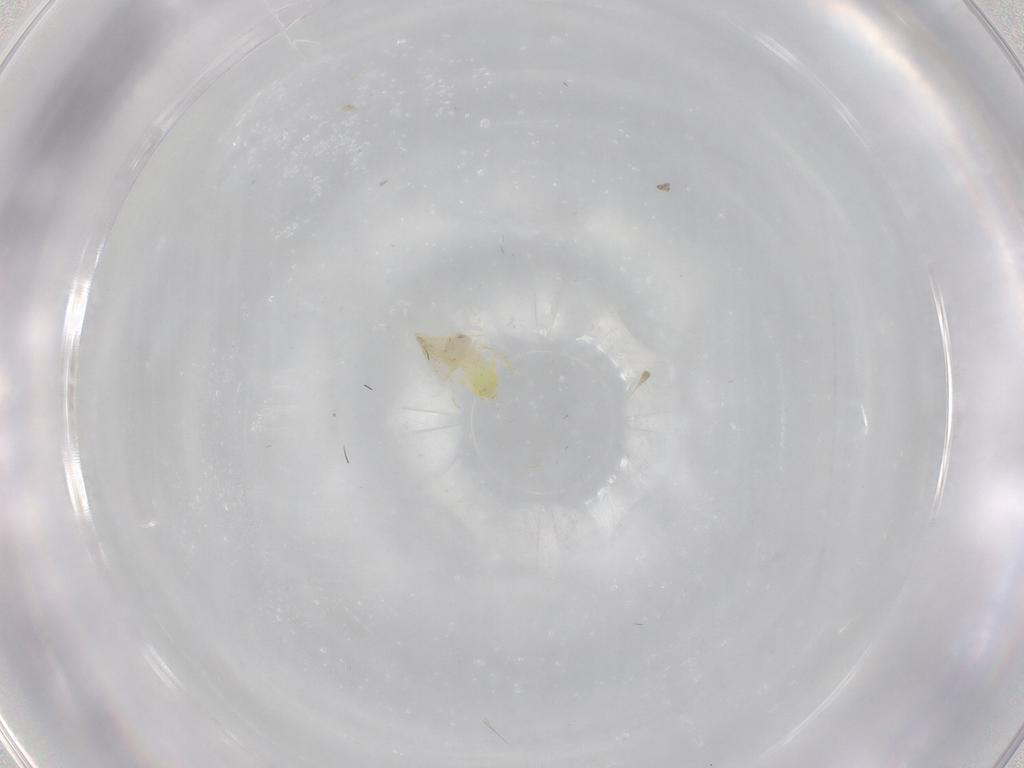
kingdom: Animalia
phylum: Arthropoda
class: Insecta
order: Hemiptera
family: Aleyrodidae
